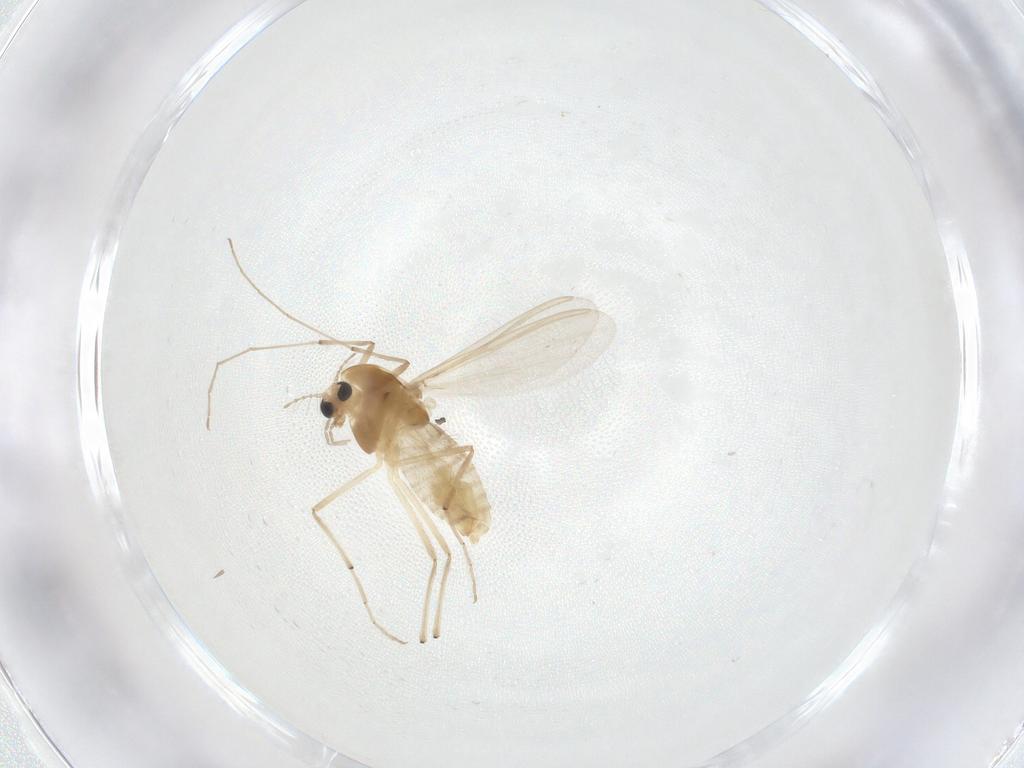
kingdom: Animalia
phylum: Arthropoda
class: Insecta
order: Diptera
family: Chironomidae
